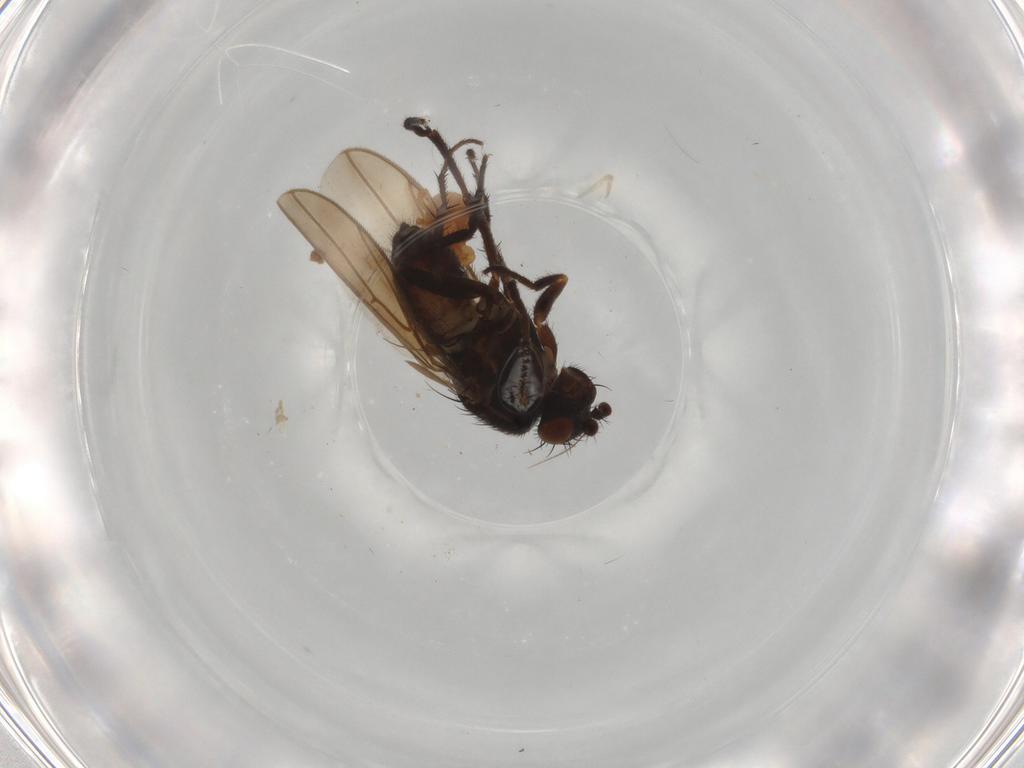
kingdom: Animalia
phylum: Arthropoda
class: Insecta
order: Diptera
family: Sphaeroceridae
